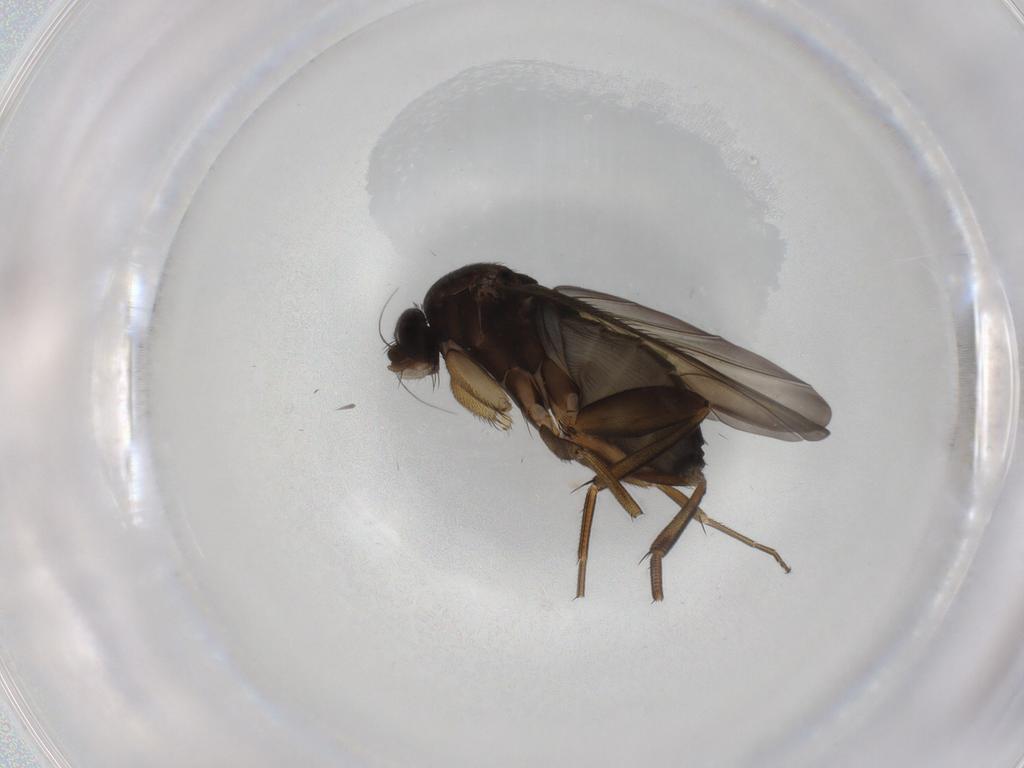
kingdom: Animalia
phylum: Arthropoda
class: Insecta
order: Diptera
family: Phoridae
